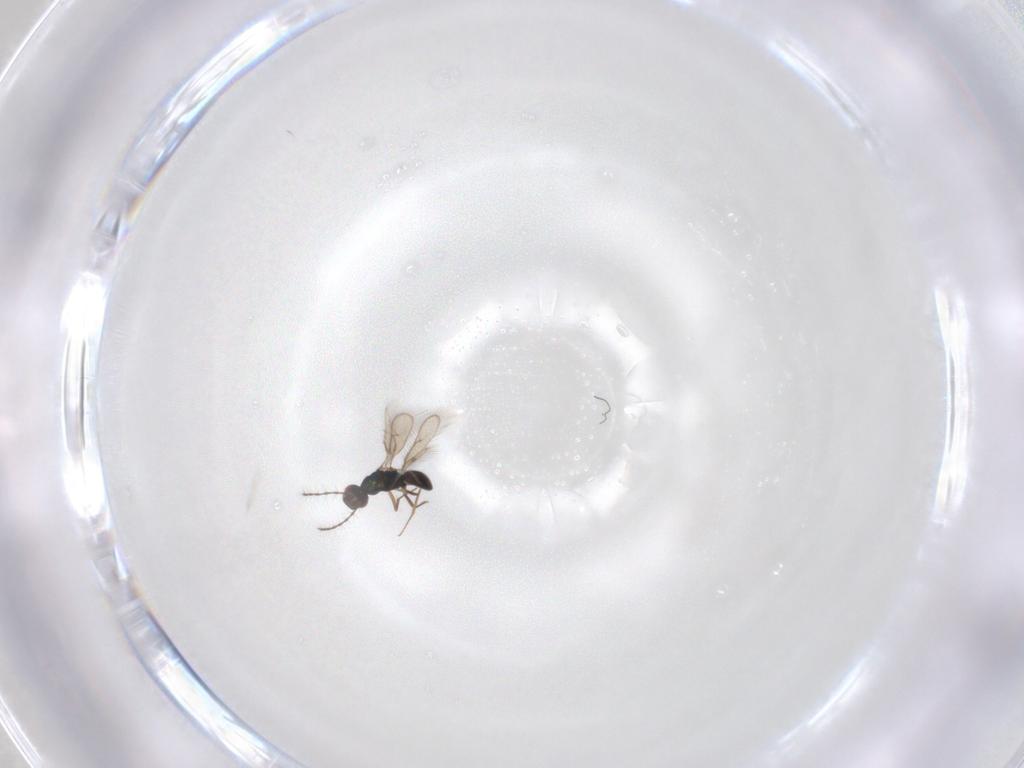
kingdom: Animalia
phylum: Arthropoda
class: Insecta
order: Hymenoptera
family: Pteromalidae
